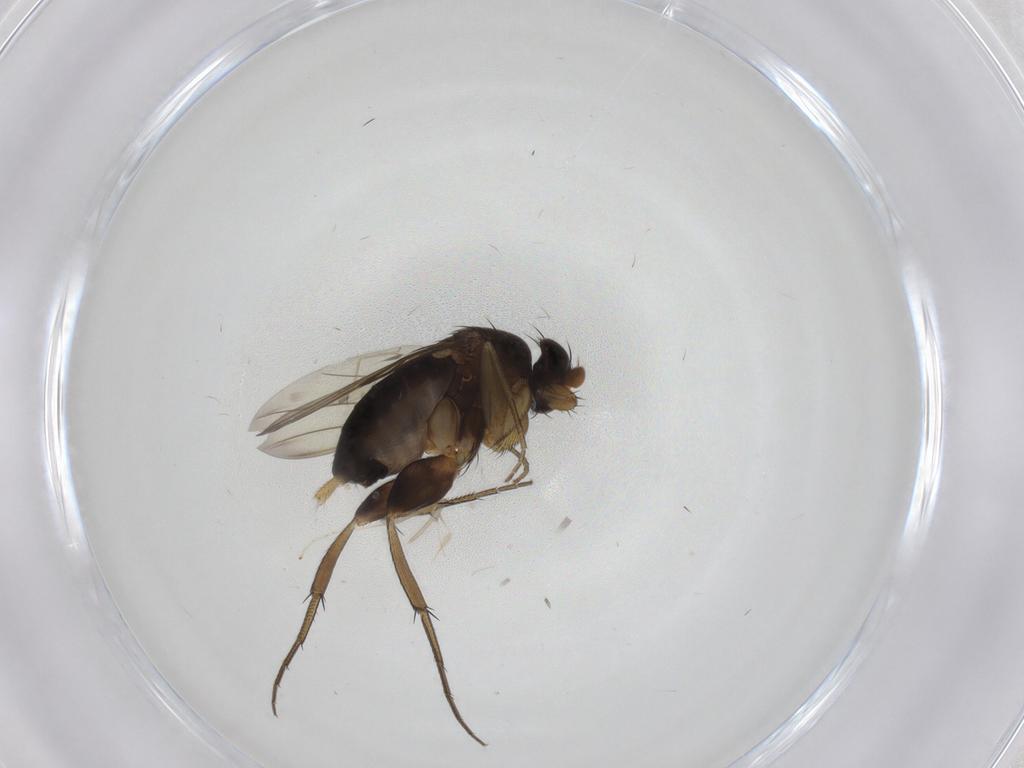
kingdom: Animalia
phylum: Arthropoda
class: Insecta
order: Diptera
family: Phoridae
